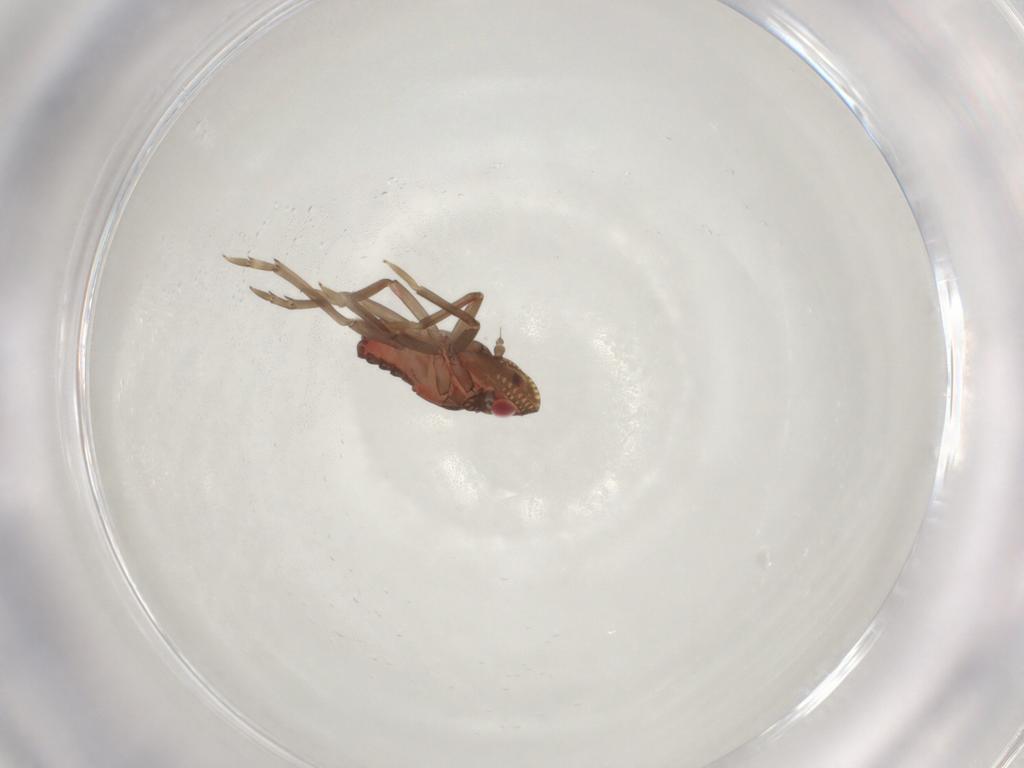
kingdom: Animalia
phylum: Arthropoda
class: Insecta
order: Hemiptera
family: Fulgoroidea_incertae_sedis
